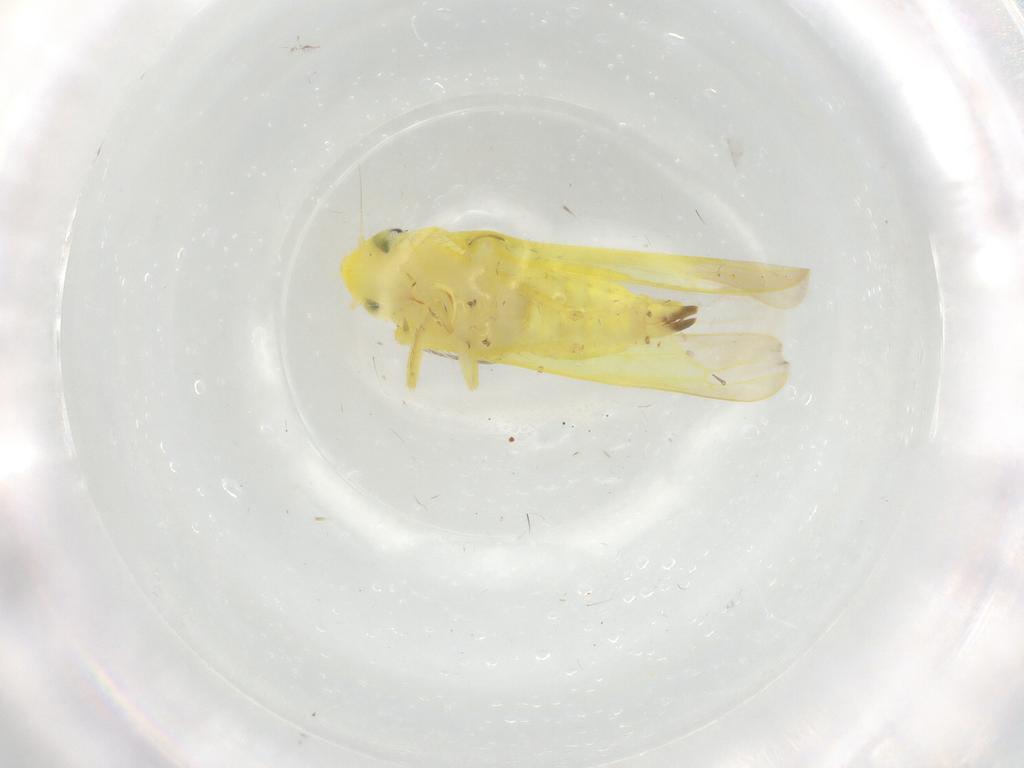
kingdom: Animalia
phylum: Arthropoda
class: Insecta
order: Hemiptera
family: Cicadellidae
